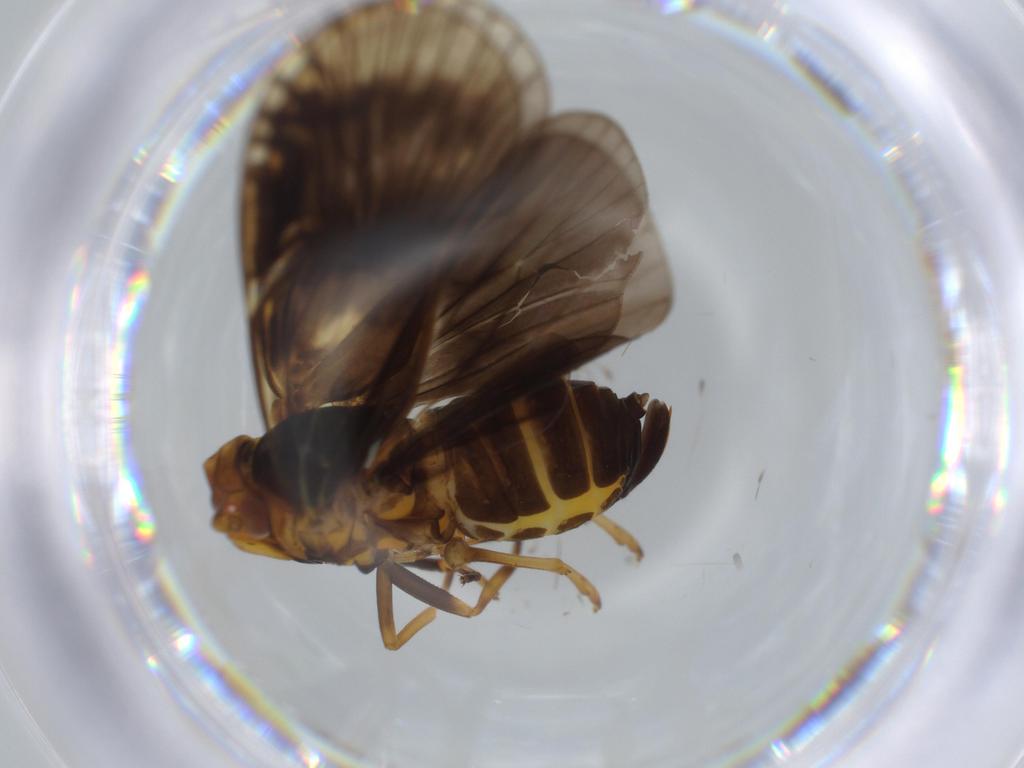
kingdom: Animalia
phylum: Arthropoda
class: Insecta
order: Hemiptera
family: Cixiidae
